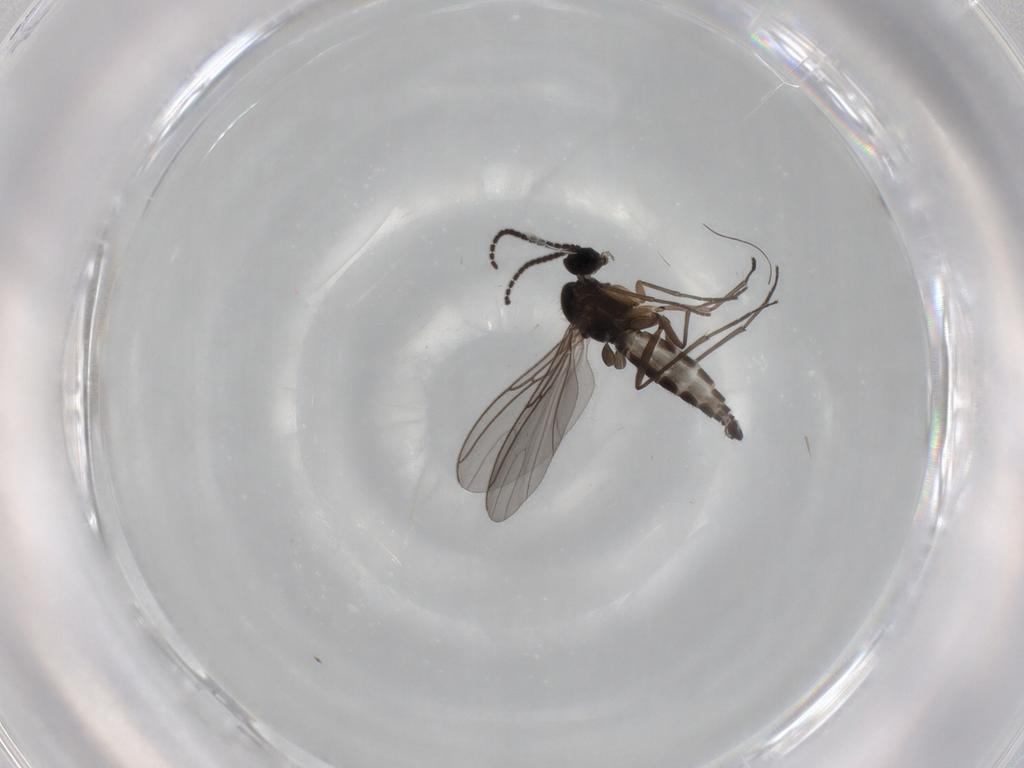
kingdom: Animalia
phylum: Arthropoda
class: Insecta
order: Diptera
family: Sciaridae
